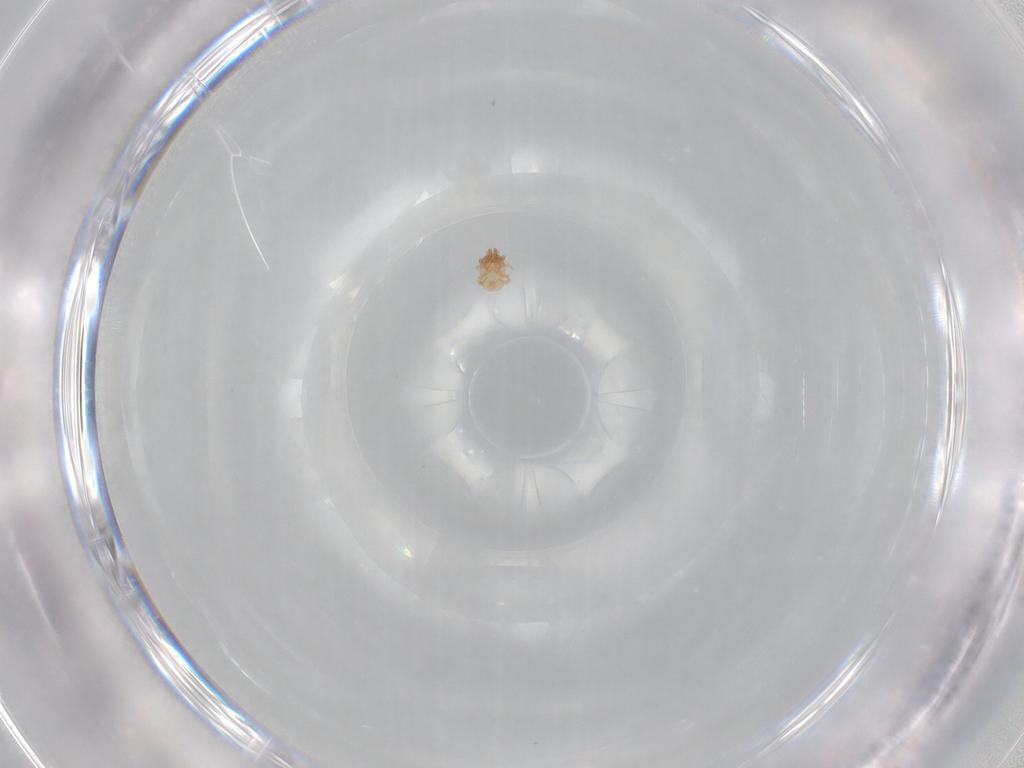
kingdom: Animalia
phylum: Arthropoda
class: Arachnida
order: Mesostigmata
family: Ascidae
